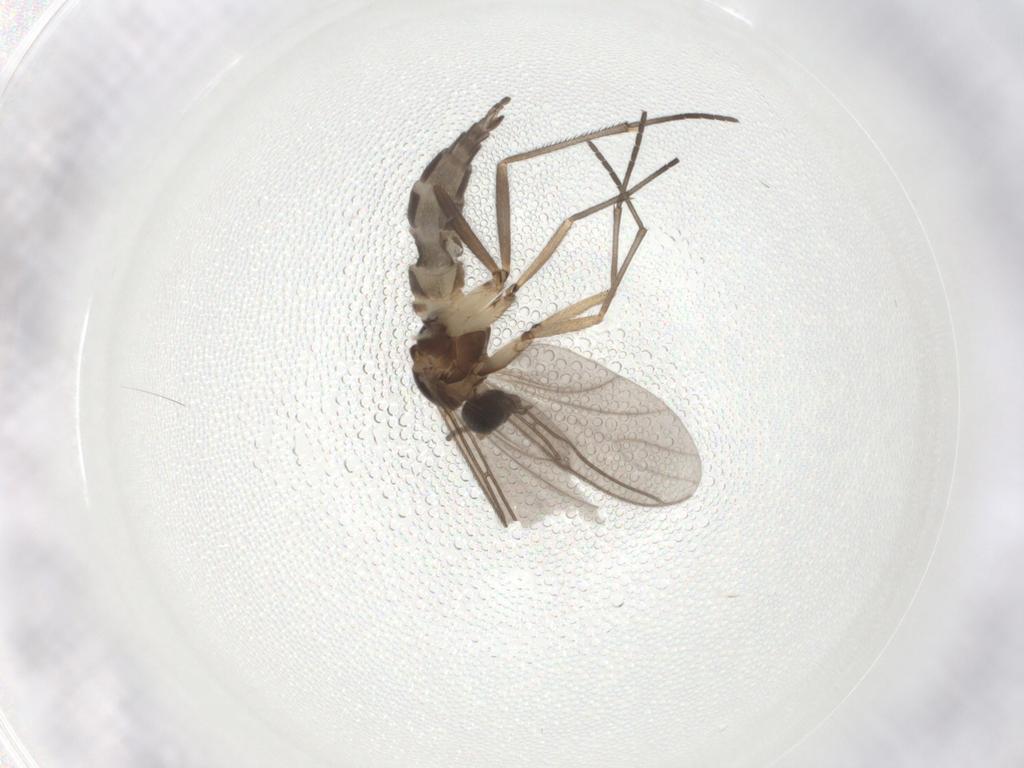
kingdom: Animalia
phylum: Arthropoda
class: Insecta
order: Diptera
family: Sciaridae
